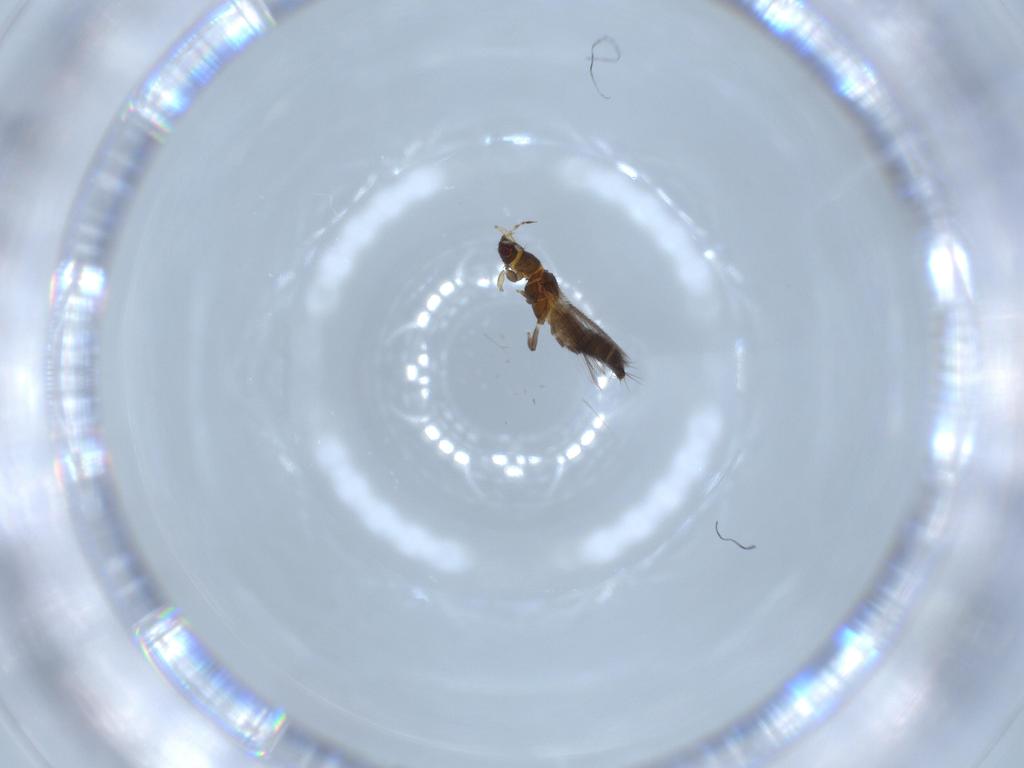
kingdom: Animalia
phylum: Arthropoda
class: Insecta
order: Thysanoptera
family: Thripidae
